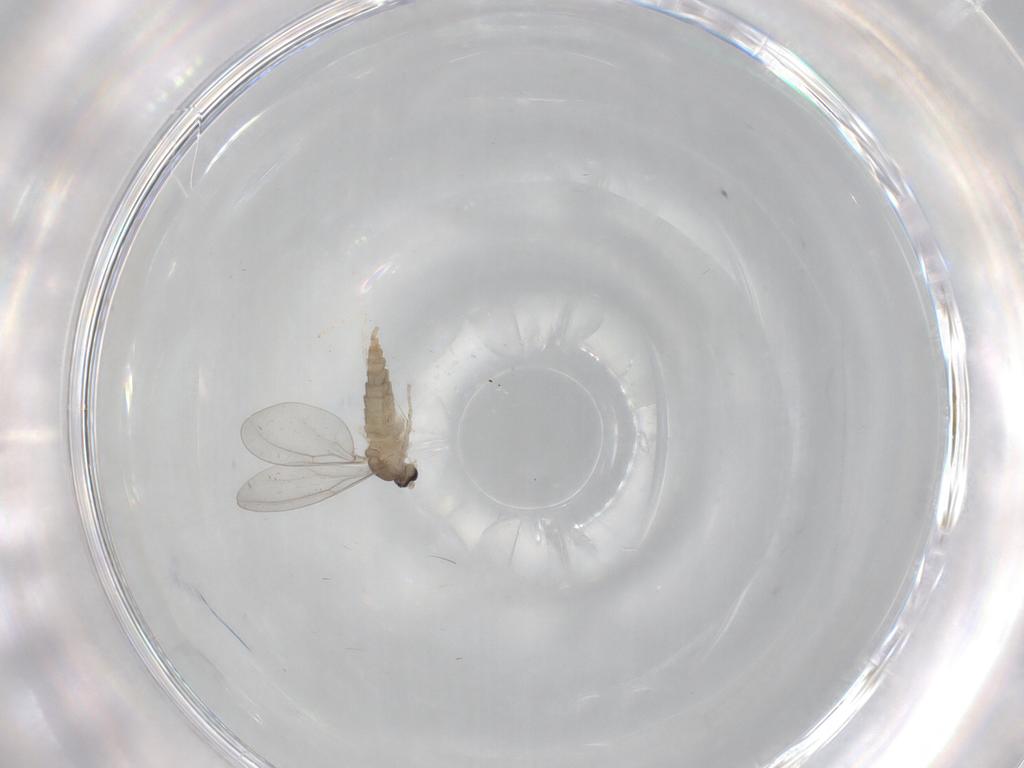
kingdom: Animalia
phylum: Arthropoda
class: Insecta
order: Diptera
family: Cecidomyiidae
